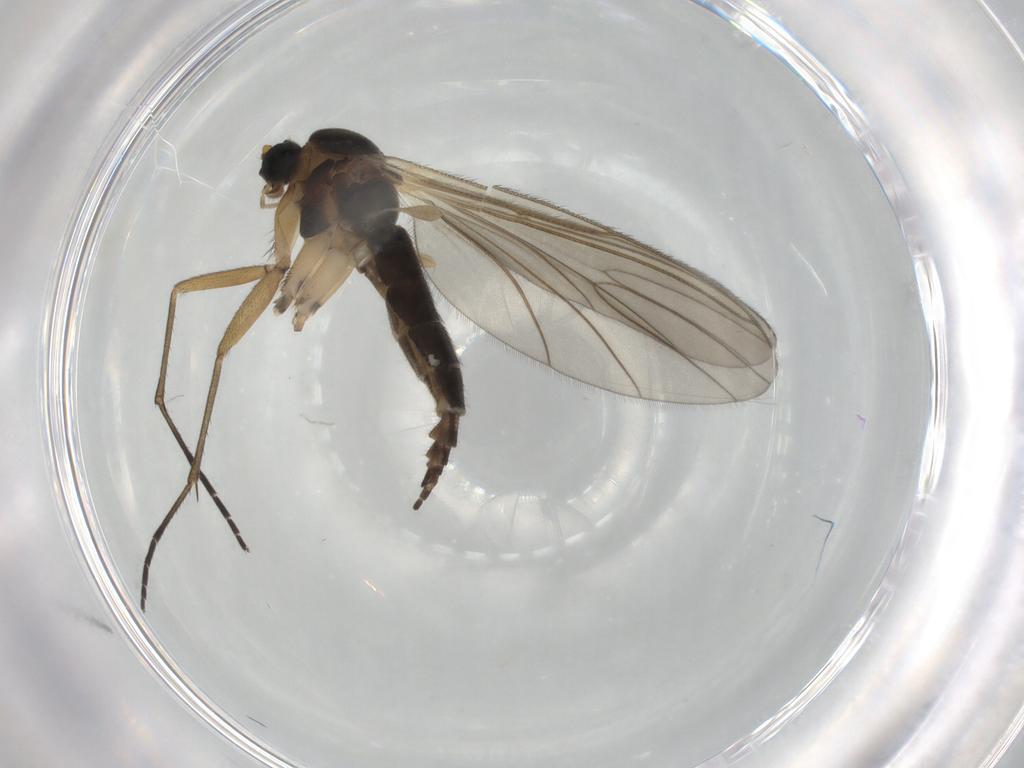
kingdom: Animalia
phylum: Arthropoda
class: Insecta
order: Diptera
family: Sciaridae
